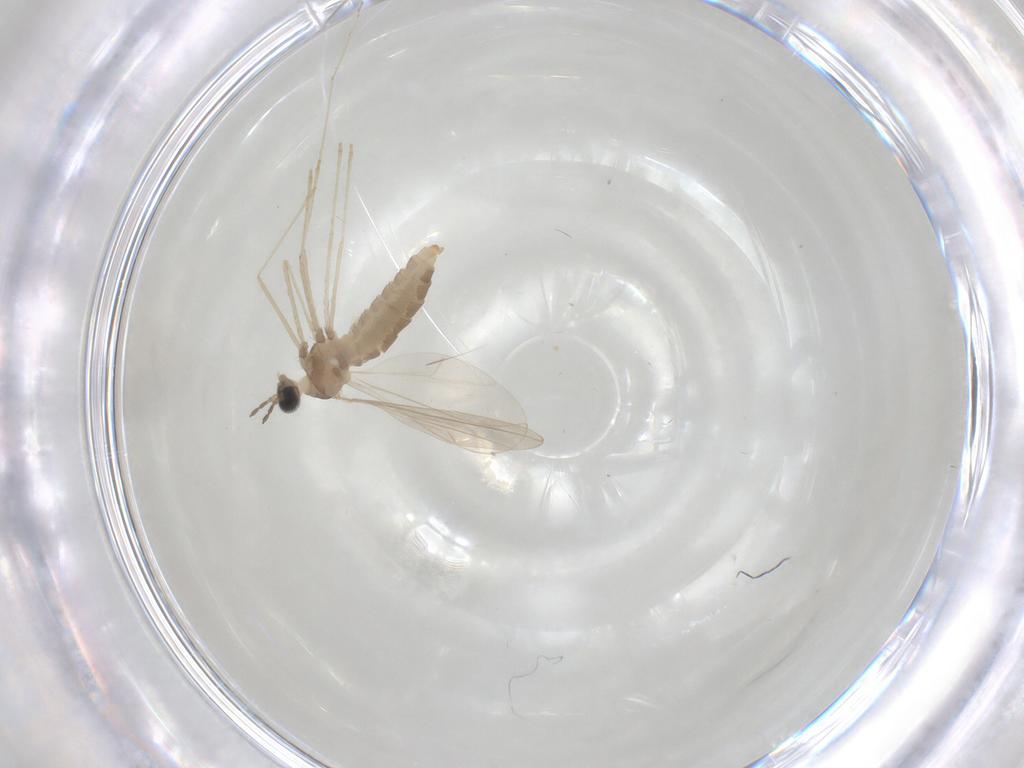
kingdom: Animalia
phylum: Arthropoda
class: Insecta
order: Diptera
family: Cecidomyiidae
